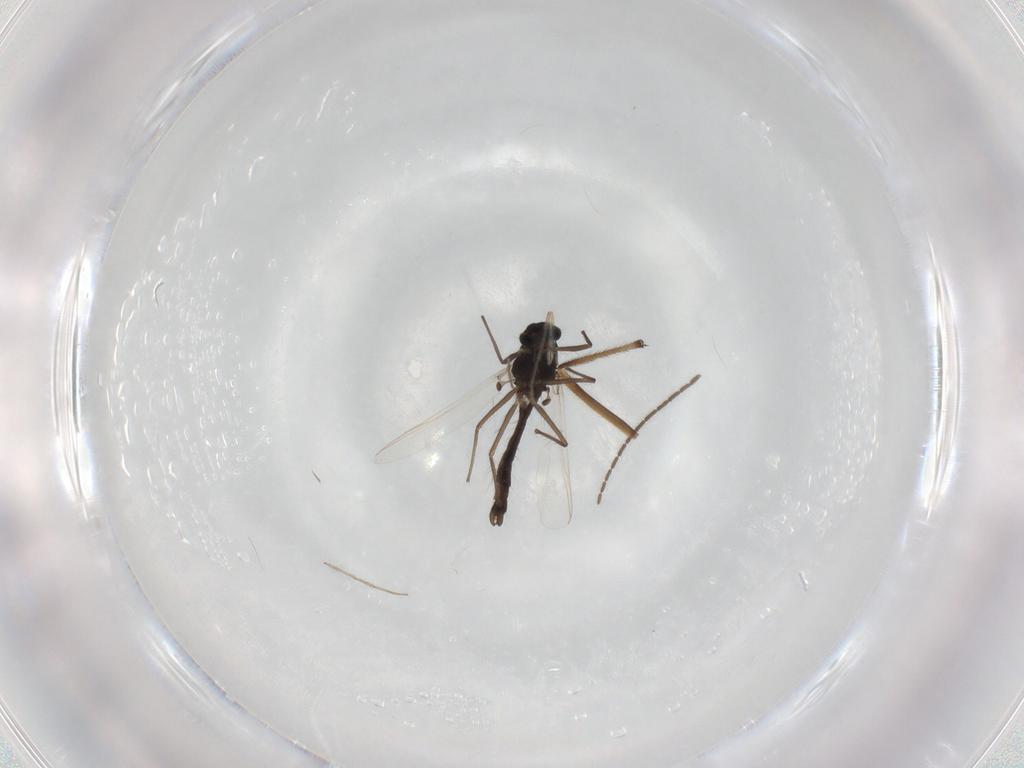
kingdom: Animalia
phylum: Arthropoda
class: Insecta
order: Diptera
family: Chironomidae
